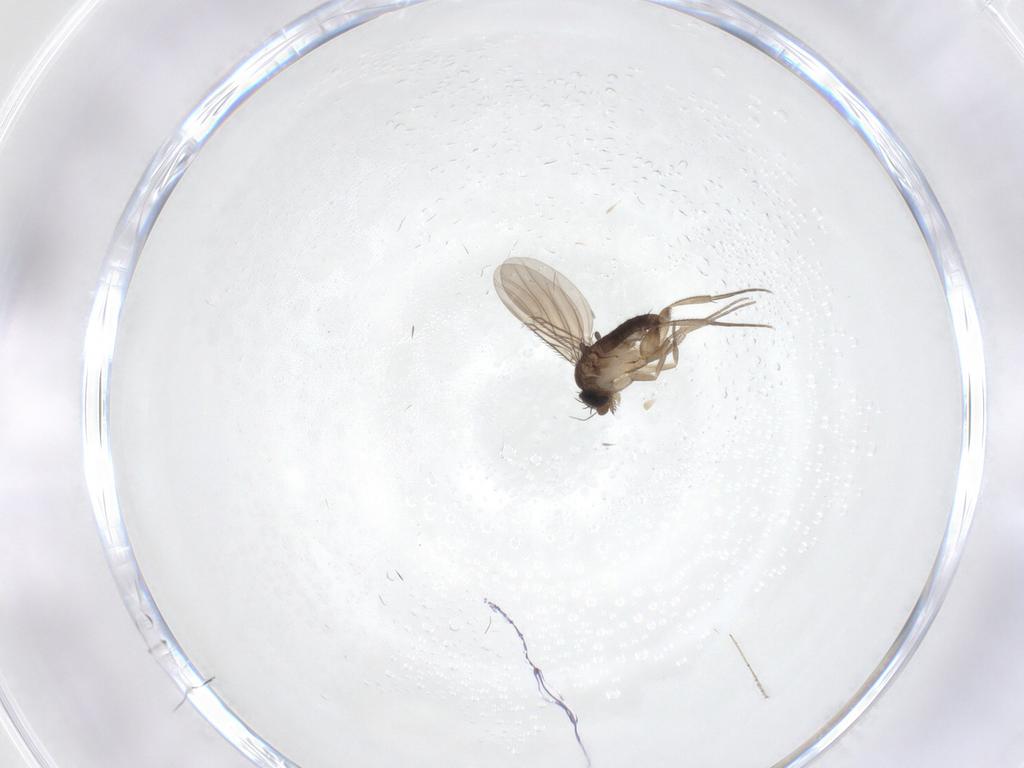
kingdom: Animalia
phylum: Arthropoda
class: Insecta
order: Diptera
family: Phoridae
